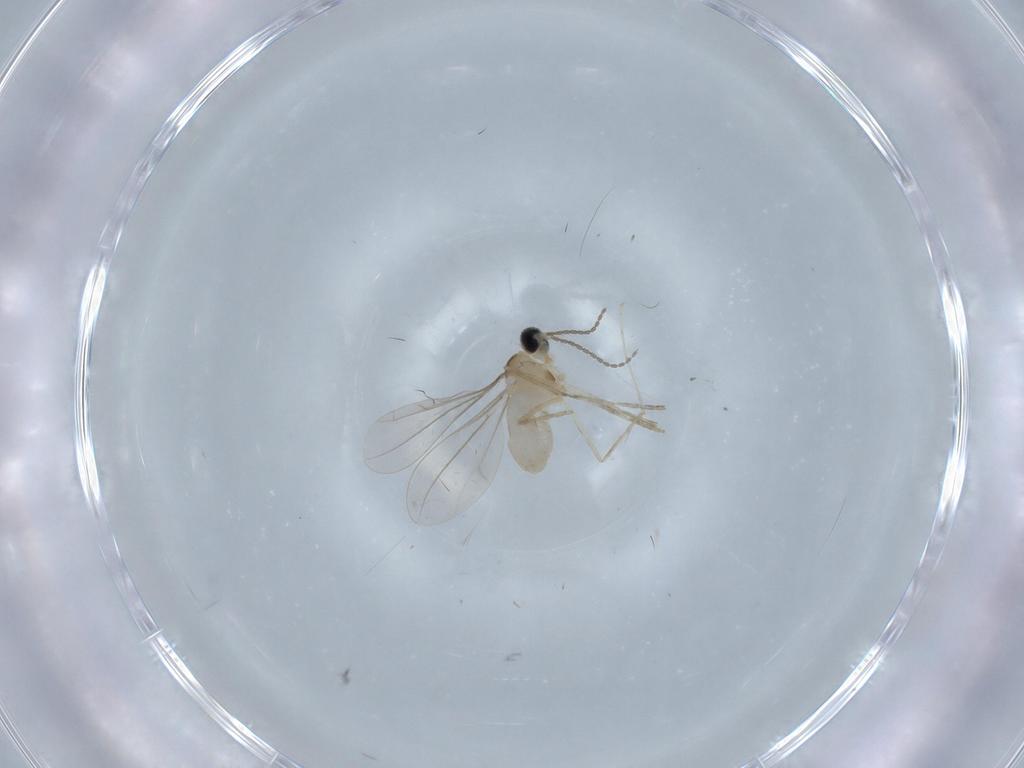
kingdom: Animalia
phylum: Arthropoda
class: Insecta
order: Diptera
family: Cecidomyiidae
